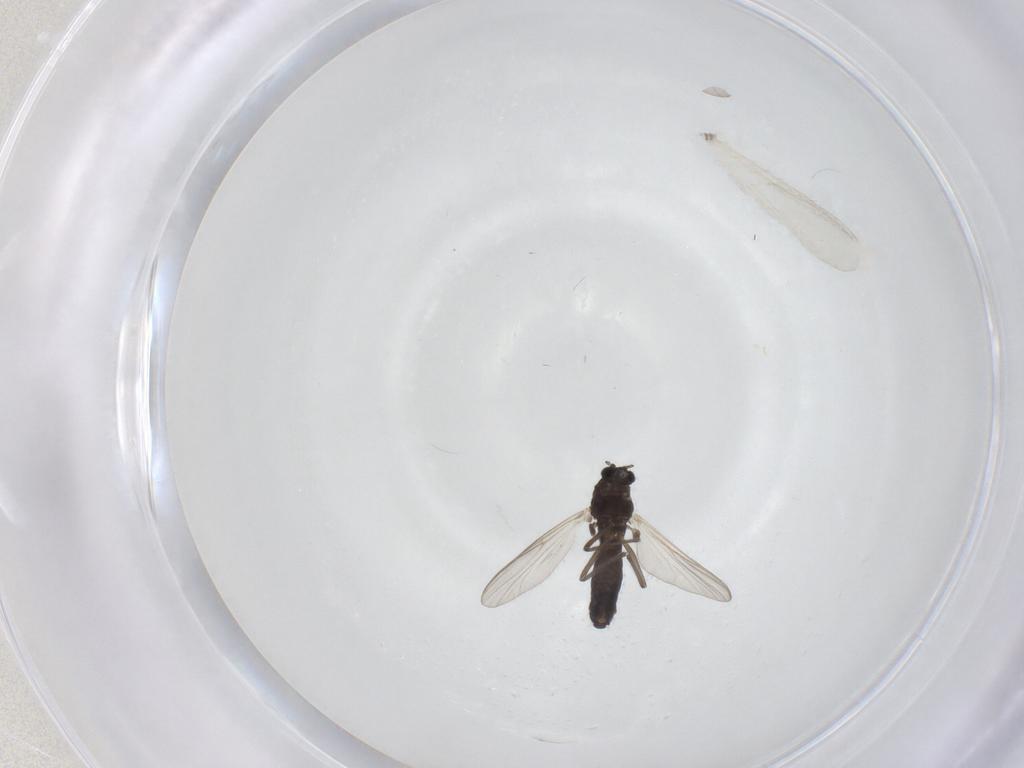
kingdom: Animalia
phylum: Arthropoda
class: Insecta
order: Diptera
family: Chironomidae
